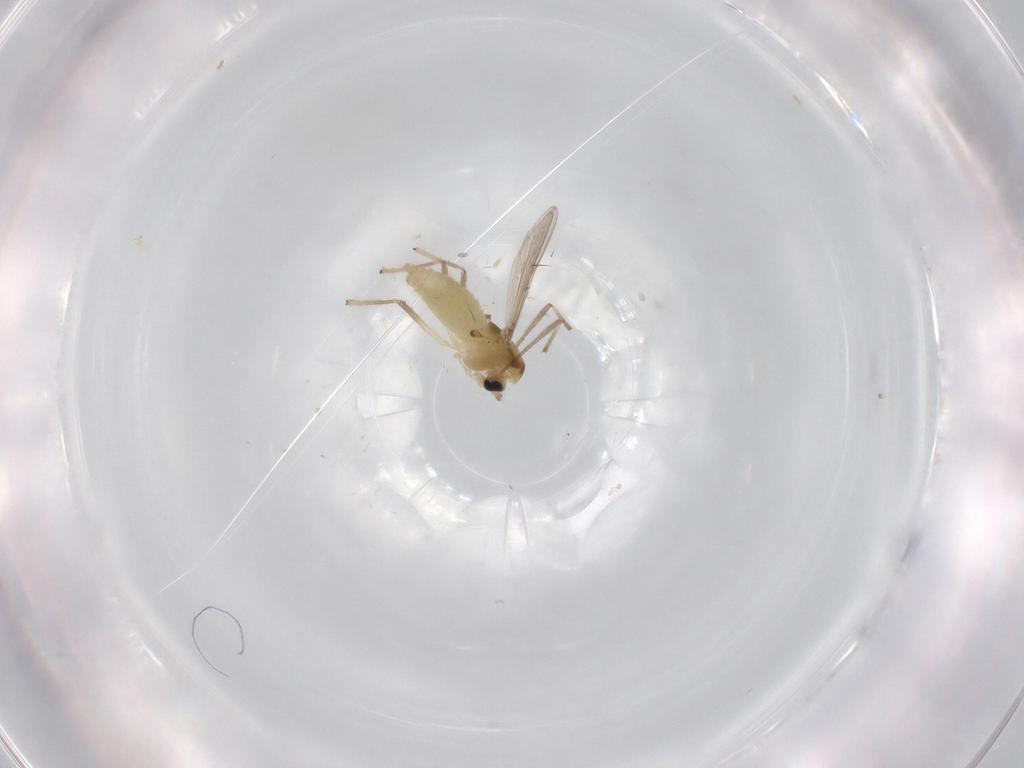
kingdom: Animalia
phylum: Arthropoda
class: Insecta
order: Diptera
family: Chironomidae
